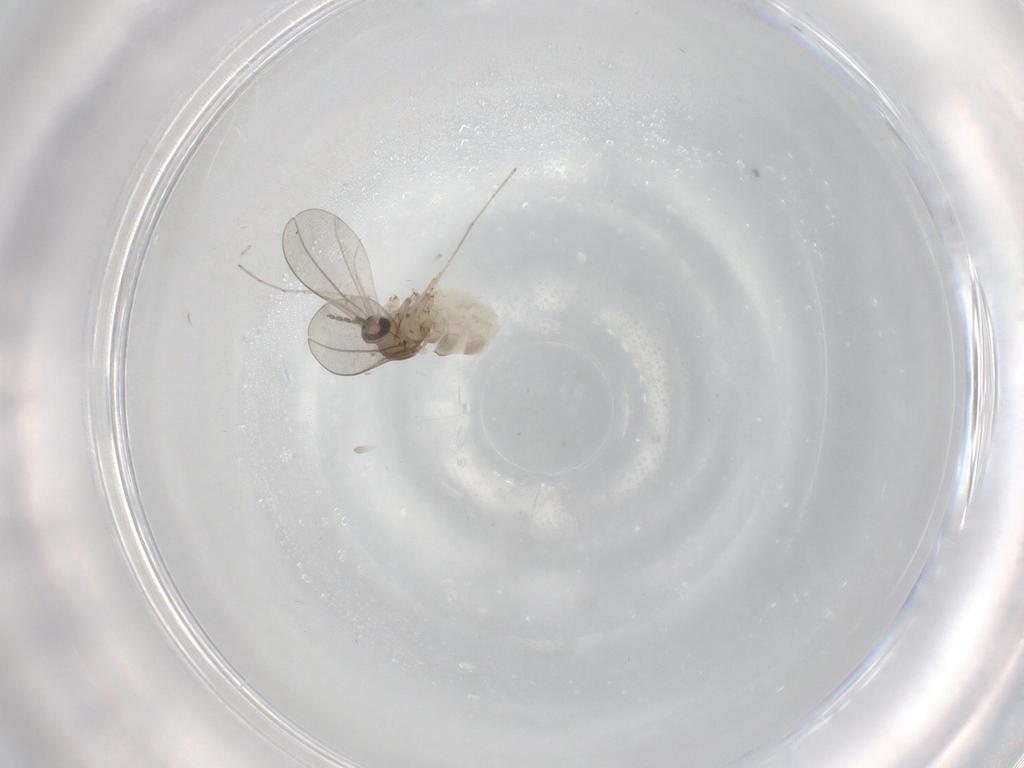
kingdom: Animalia
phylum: Arthropoda
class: Insecta
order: Diptera
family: Cecidomyiidae
